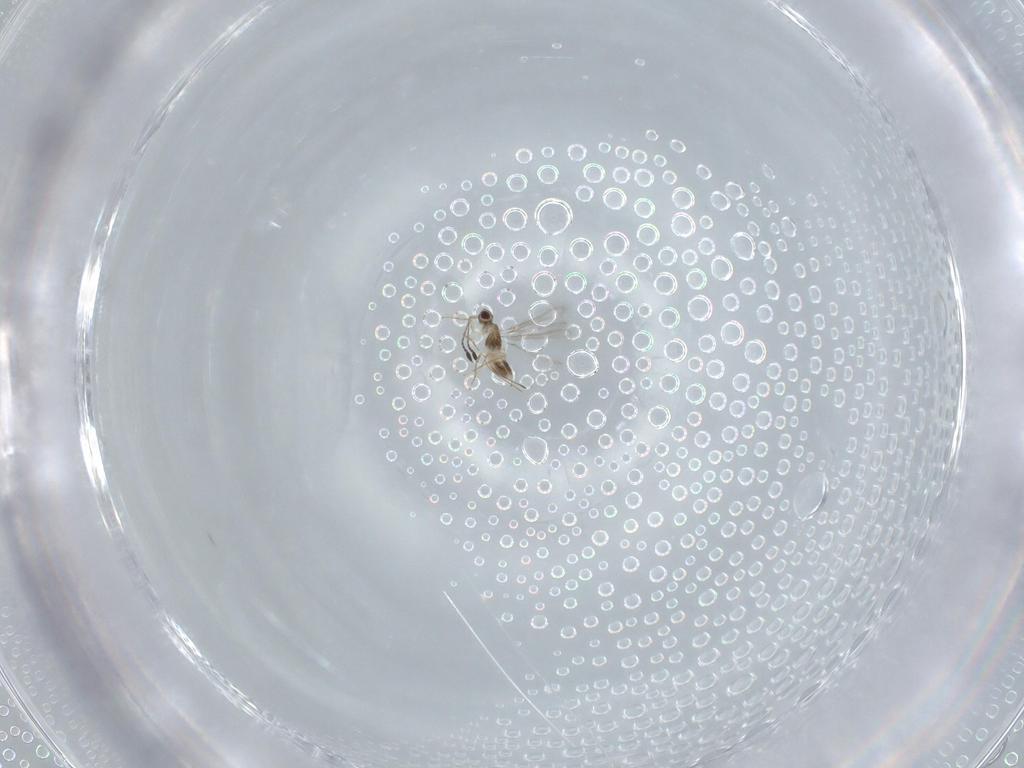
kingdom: Animalia
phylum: Arthropoda
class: Insecta
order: Hymenoptera
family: Mymaridae
